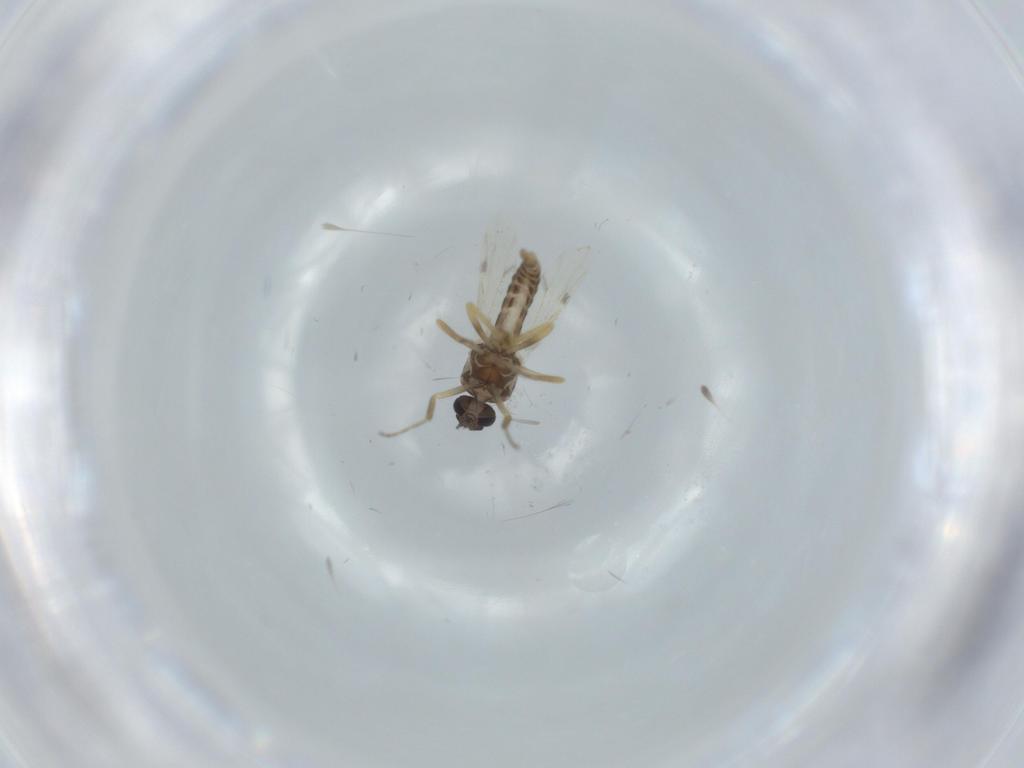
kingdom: Animalia
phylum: Arthropoda
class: Insecta
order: Diptera
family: Ceratopogonidae
